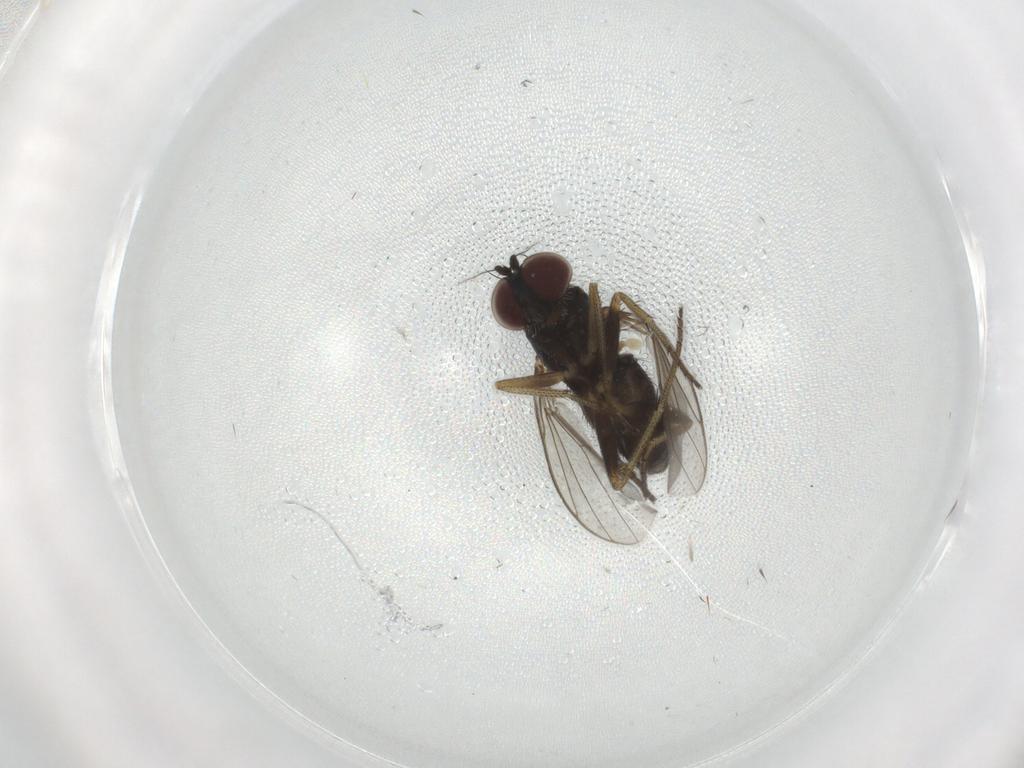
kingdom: Animalia
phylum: Arthropoda
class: Insecta
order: Diptera
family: Dolichopodidae
